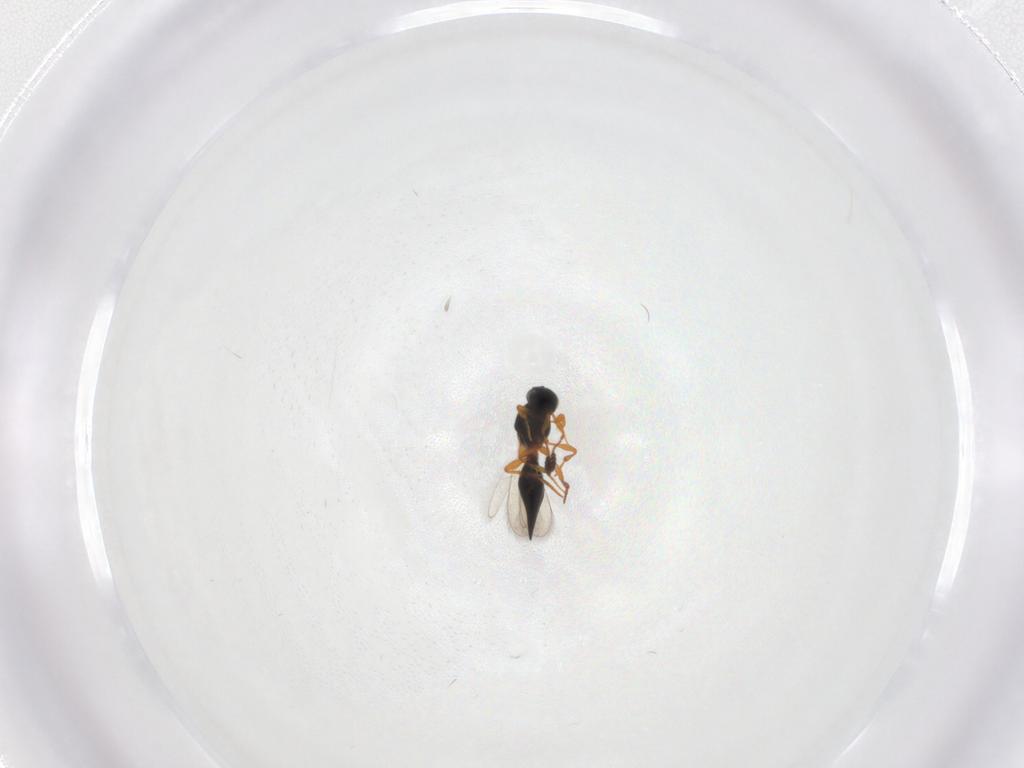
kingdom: Animalia
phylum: Arthropoda
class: Insecta
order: Hymenoptera
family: Platygastridae
